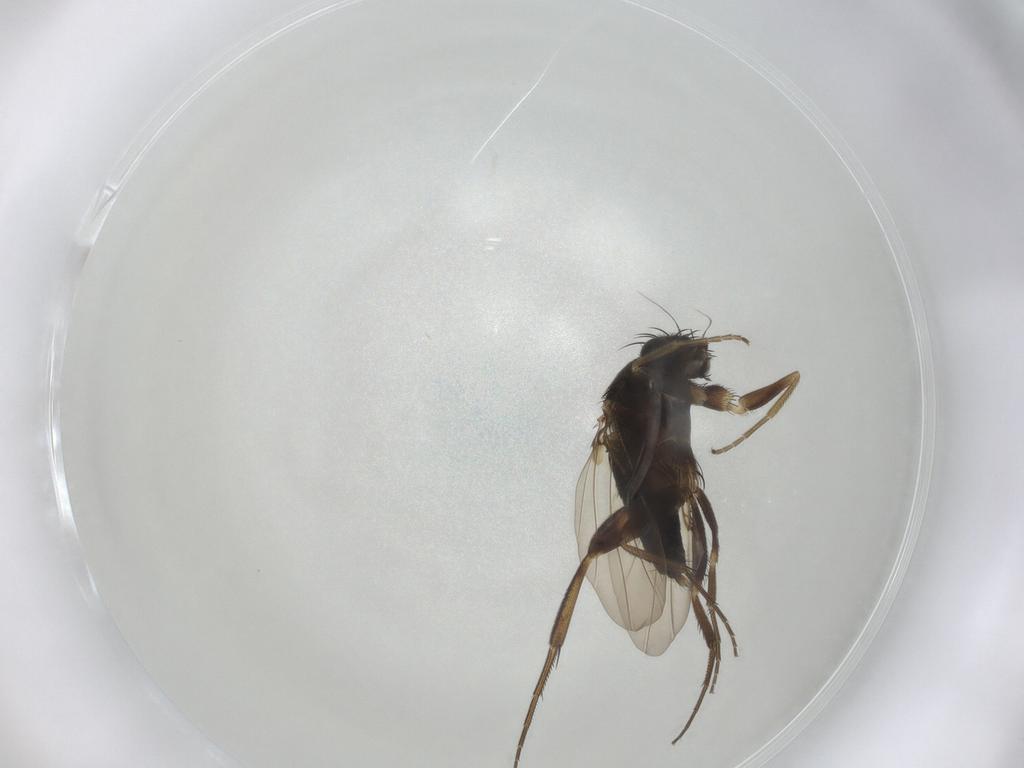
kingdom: Animalia
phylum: Arthropoda
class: Insecta
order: Diptera
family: Phoridae
